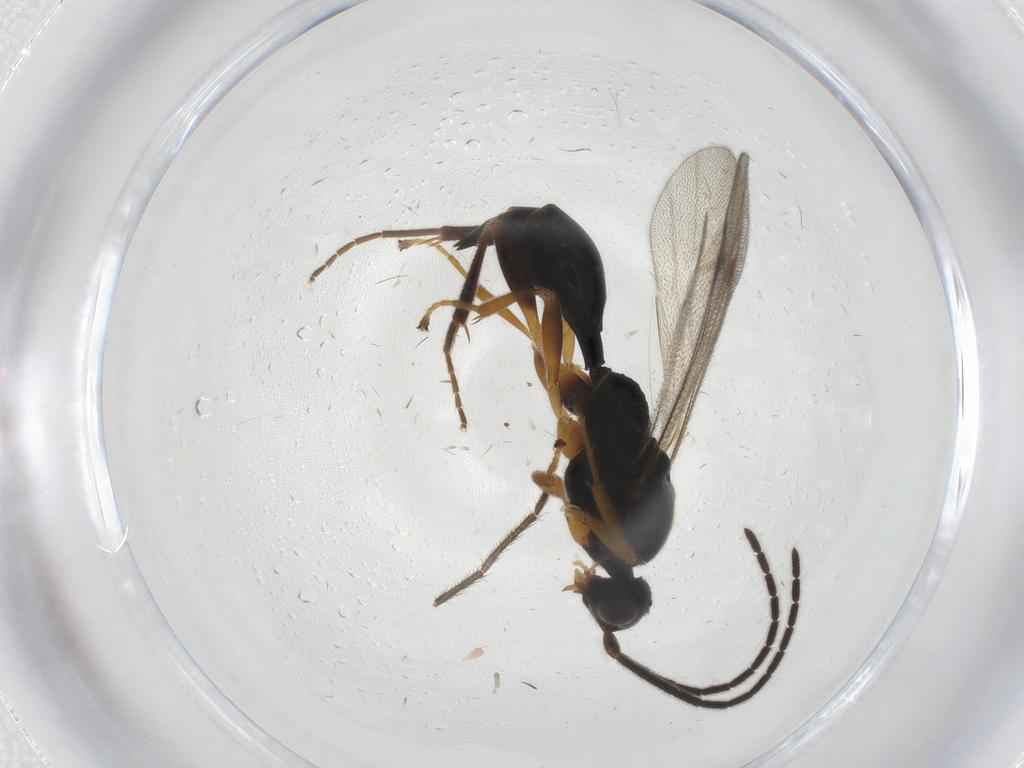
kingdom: Animalia
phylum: Arthropoda
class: Insecta
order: Hymenoptera
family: Proctotrupidae
